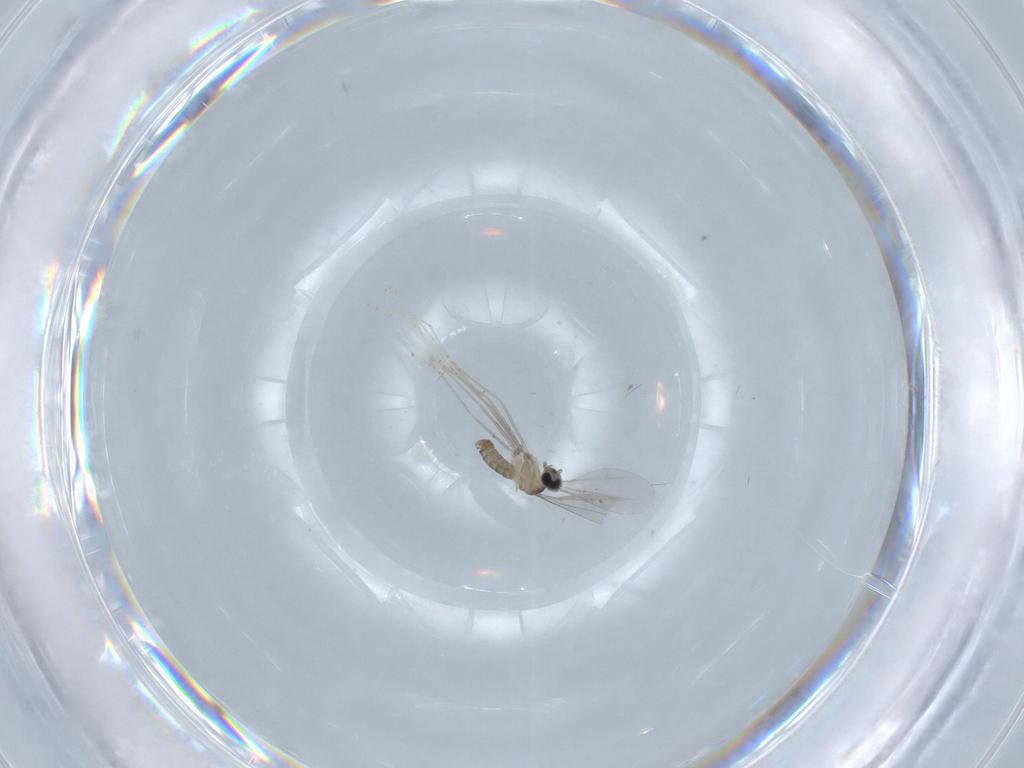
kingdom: Animalia
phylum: Arthropoda
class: Insecta
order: Diptera
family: Cecidomyiidae
